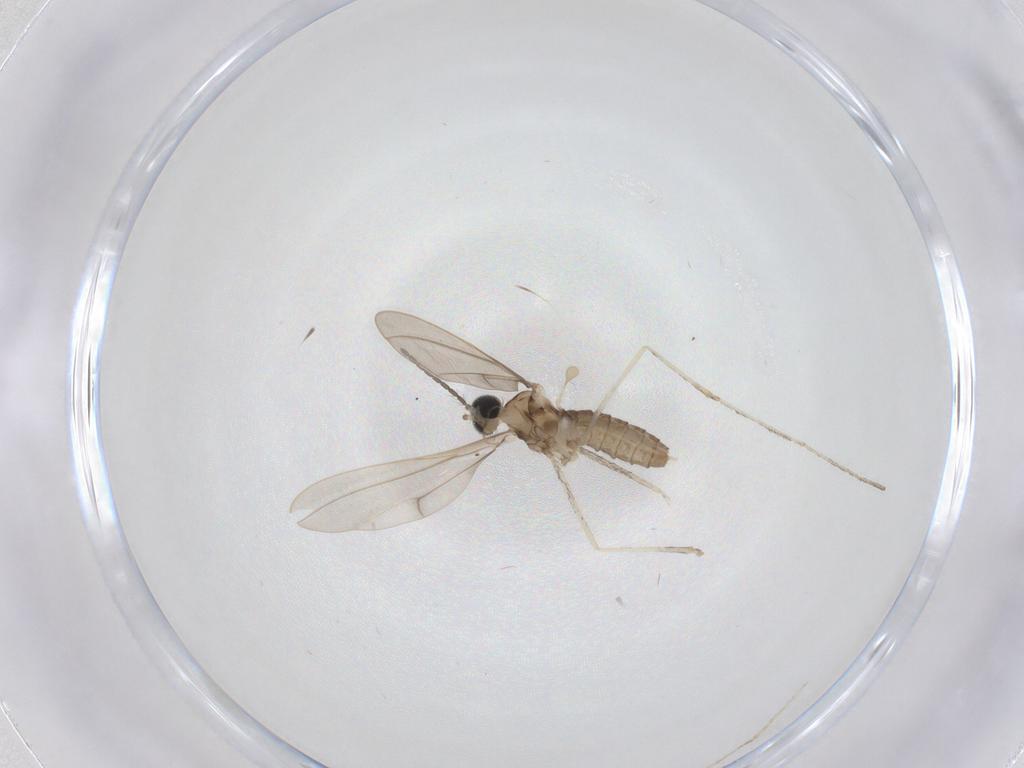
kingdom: Animalia
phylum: Arthropoda
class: Insecta
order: Diptera
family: Cecidomyiidae
